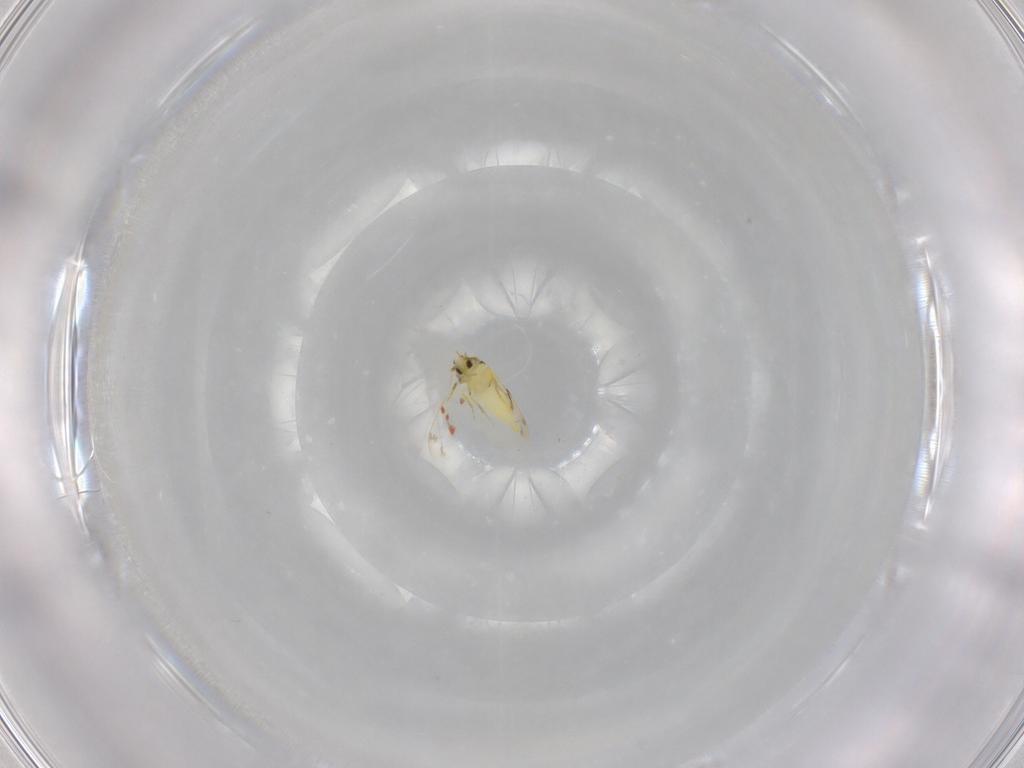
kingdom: Animalia
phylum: Arthropoda
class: Insecta
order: Hemiptera
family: Aleyrodidae
